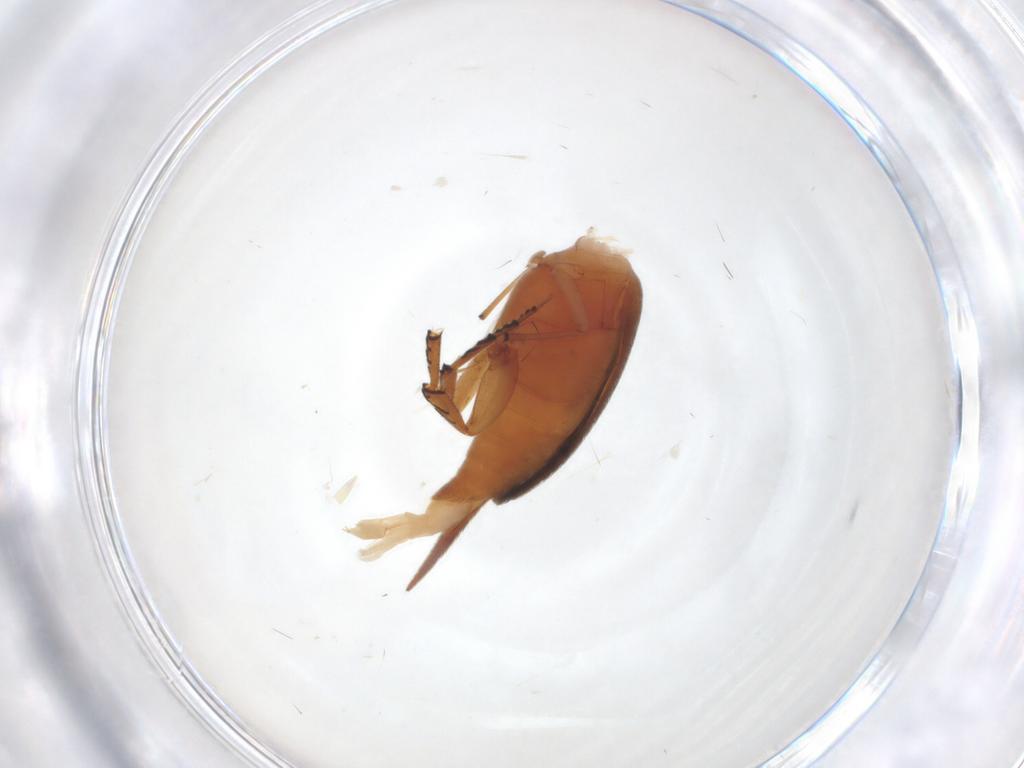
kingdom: Animalia
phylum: Arthropoda
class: Insecta
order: Coleoptera
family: Mordellidae
